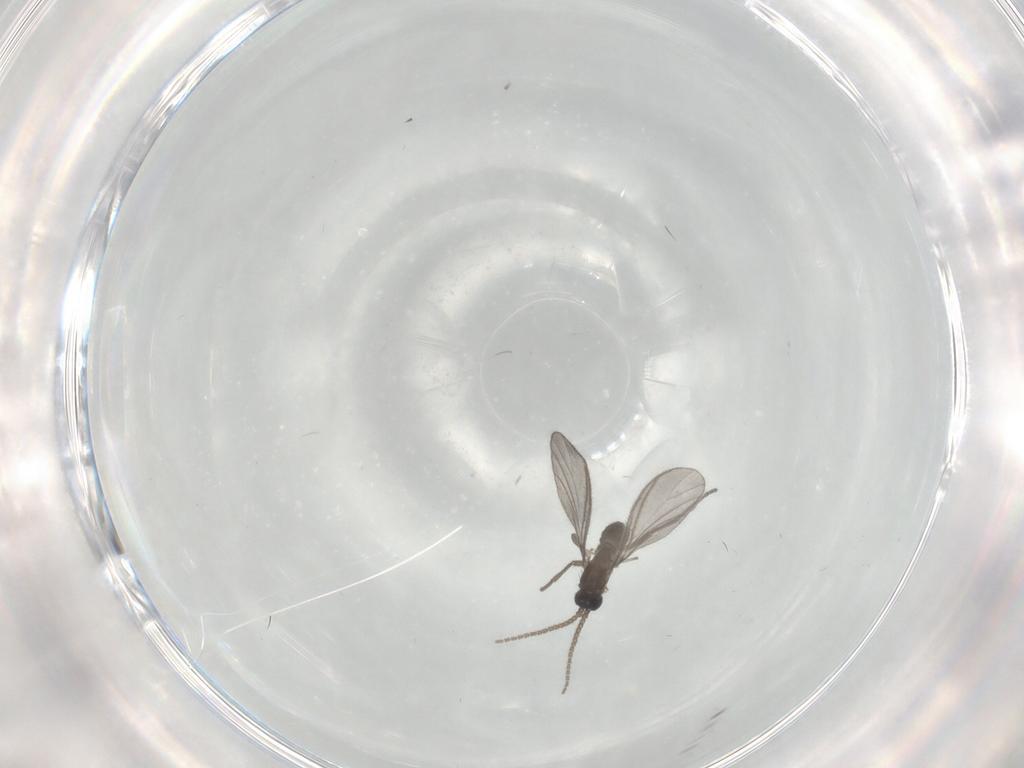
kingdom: Animalia
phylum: Arthropoda
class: Insecta
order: Diptera
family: Sciaridae
